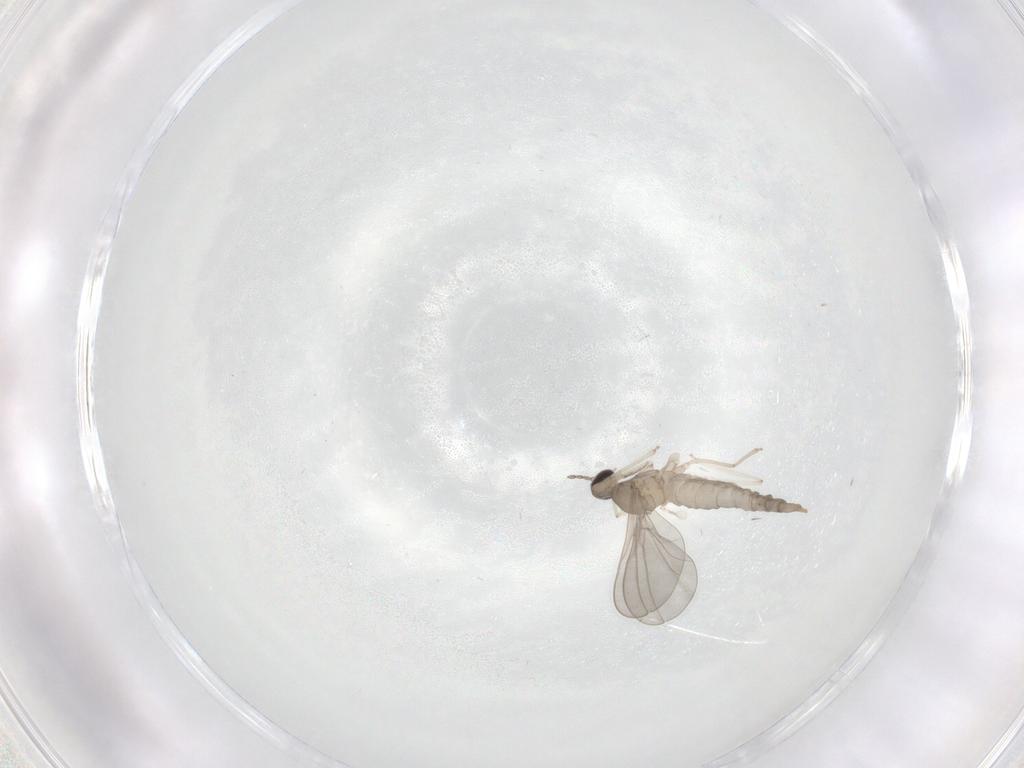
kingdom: Animalia
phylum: Arthropoda
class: Insecta
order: Diptera
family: Cecidomyiidae
